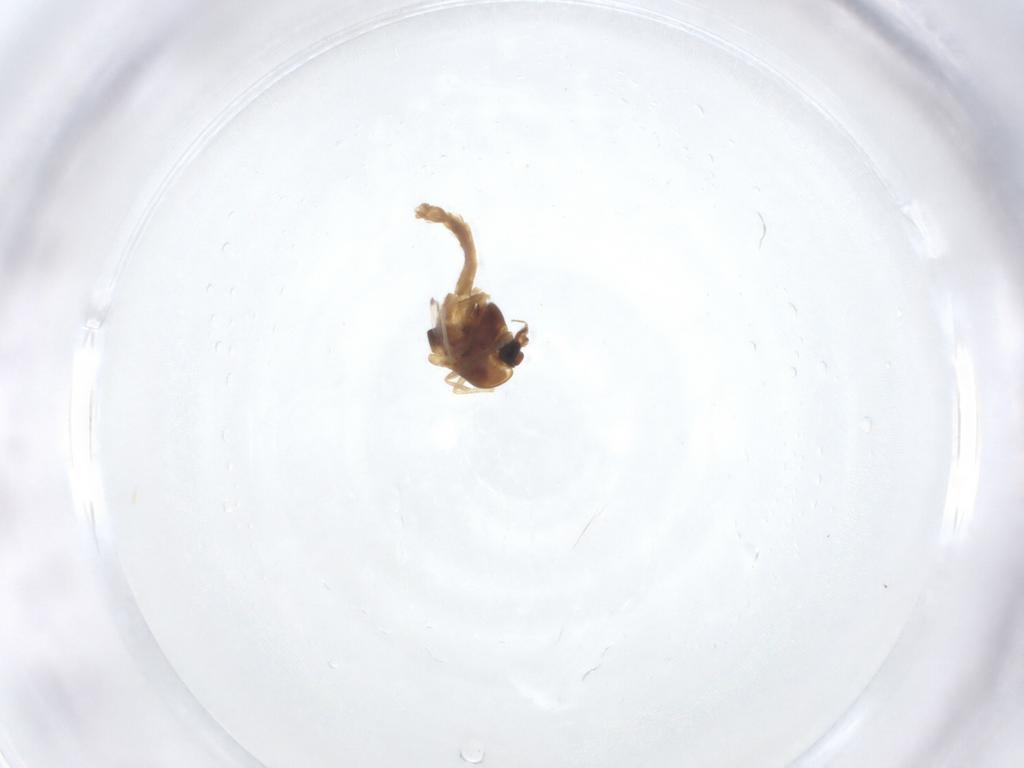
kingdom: Animalia
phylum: Arthropoda
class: Insecta
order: Diptera
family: Chironomidae
